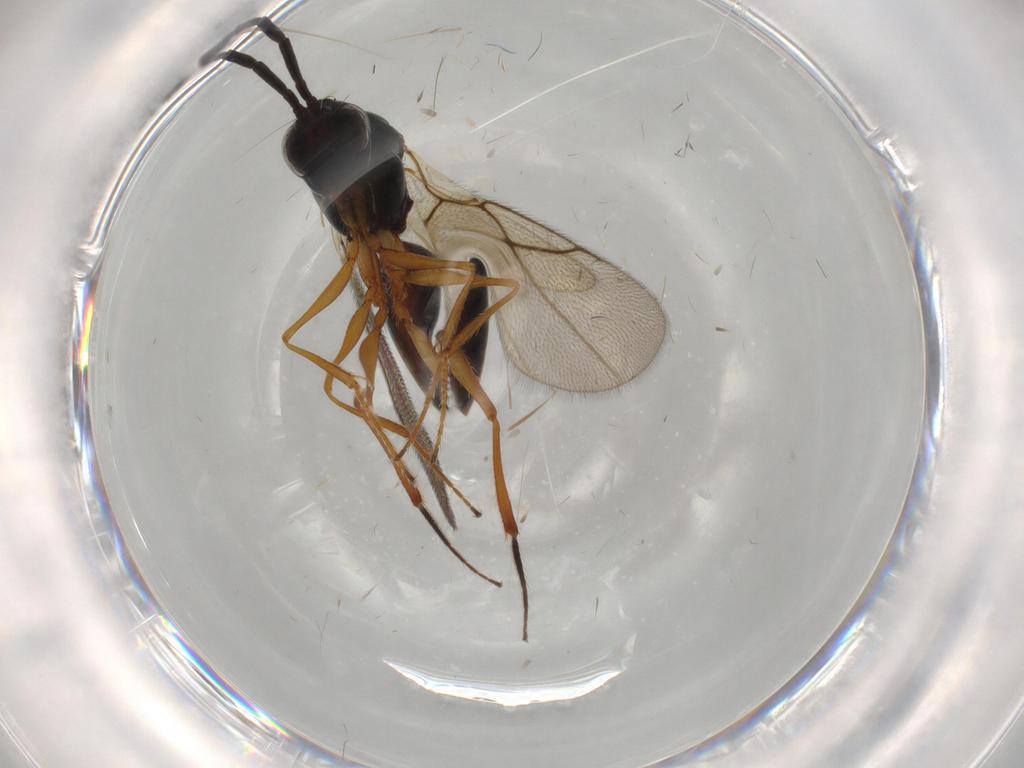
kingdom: Animalia
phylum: Arthropoda
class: Insecta
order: Hymenoptera
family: Figitidae
